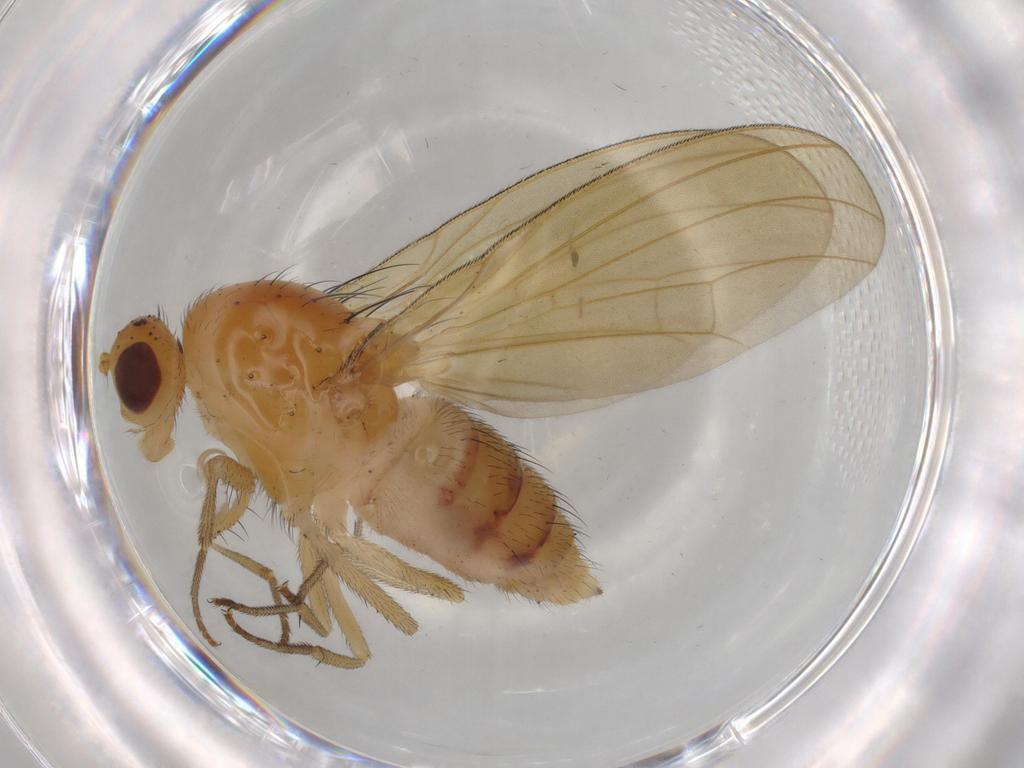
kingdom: Animalia
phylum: Arthropoda
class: Insecta
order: Diptera
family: Hybotidae
